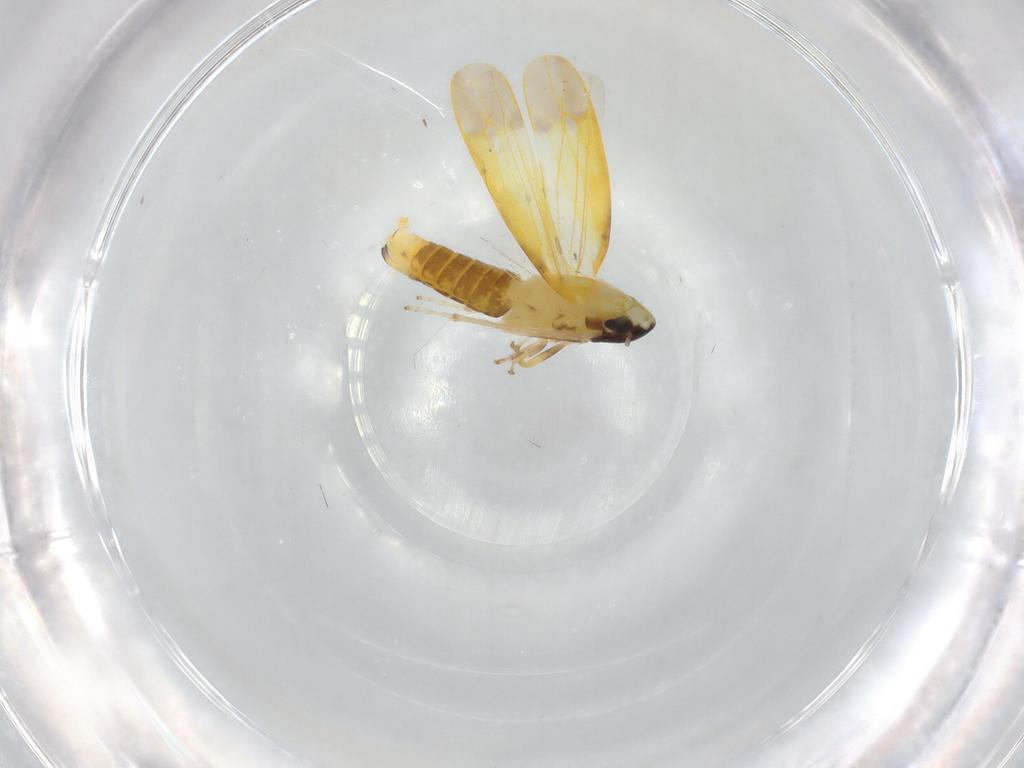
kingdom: Animalia
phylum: Arthropoda
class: Insecta
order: Hemiptera
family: Cicadellidae
